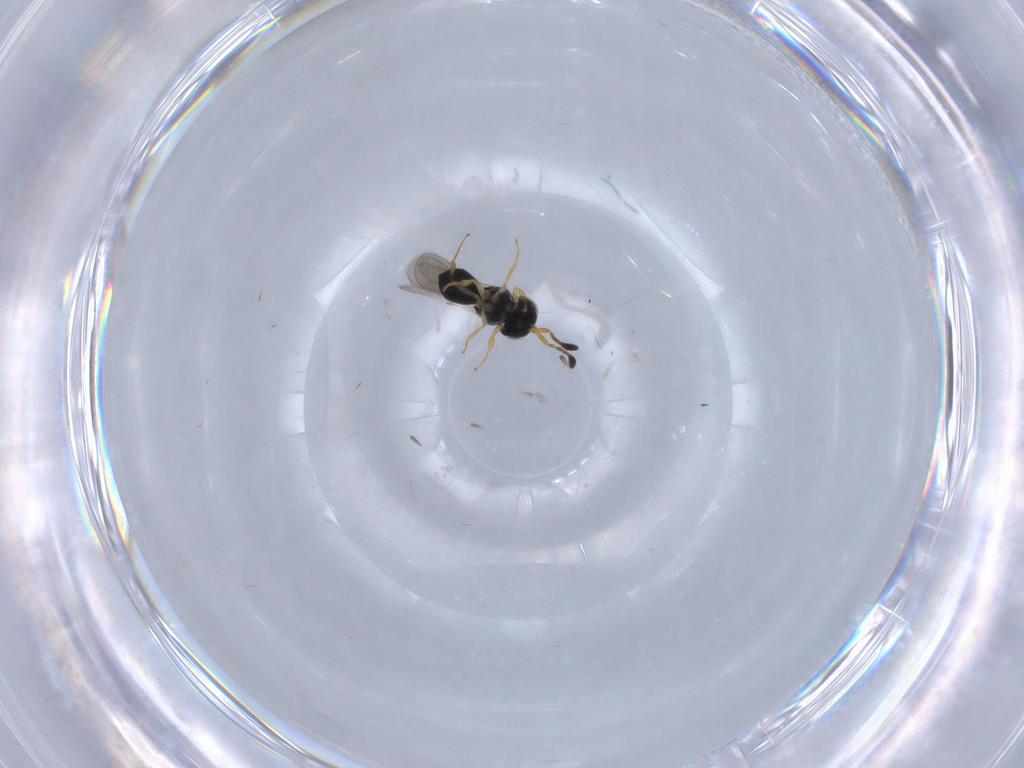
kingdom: Animalia
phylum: Arthropoda
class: Insecta
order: Hymenoptera
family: Scelionidae
